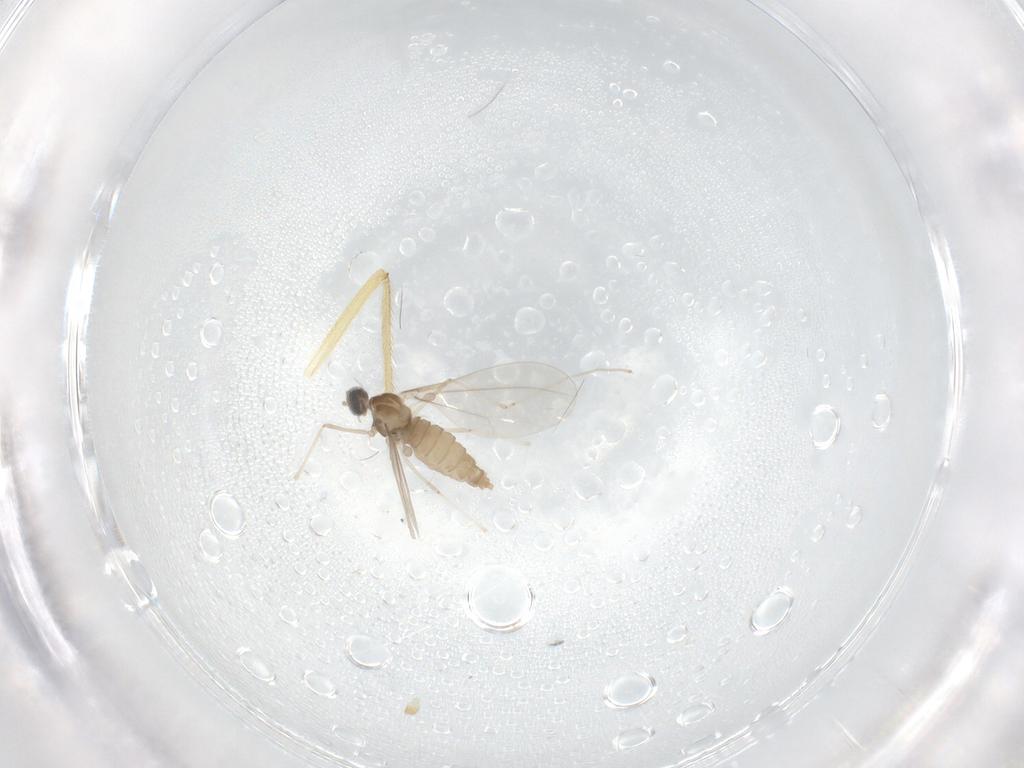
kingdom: Animalia
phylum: Arthropoda
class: Insecta
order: Diptera
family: Cecidomyiidae
